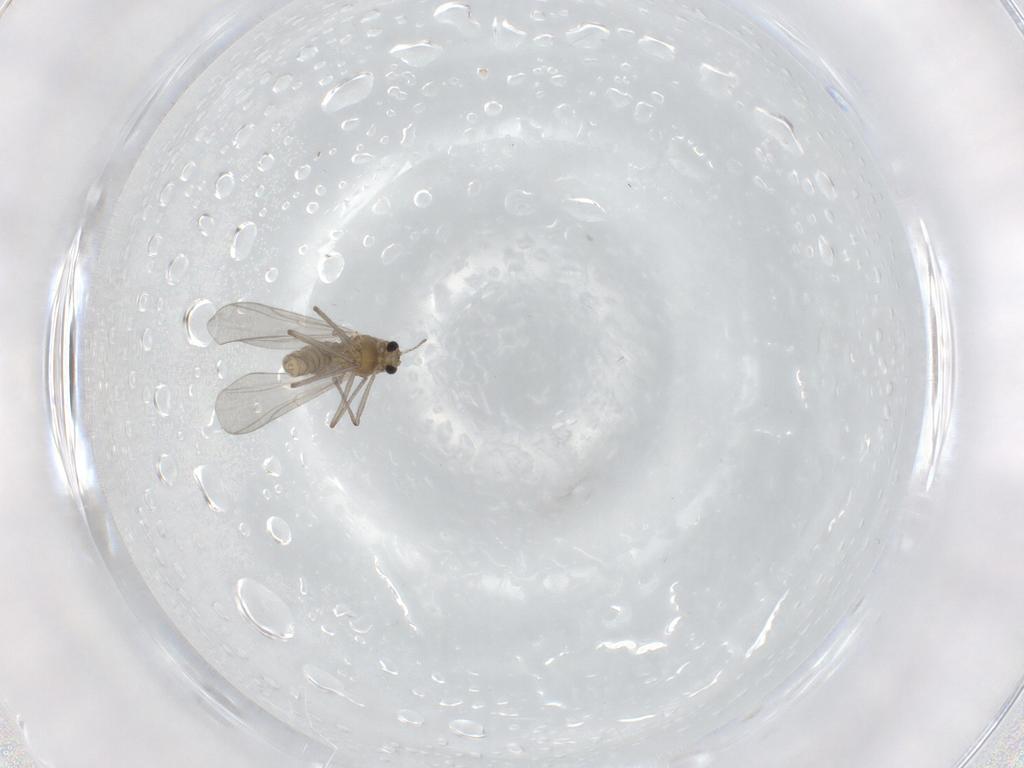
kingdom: Animalia
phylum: Arthropoda
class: Insecta
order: Diptera
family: Chironomidae
